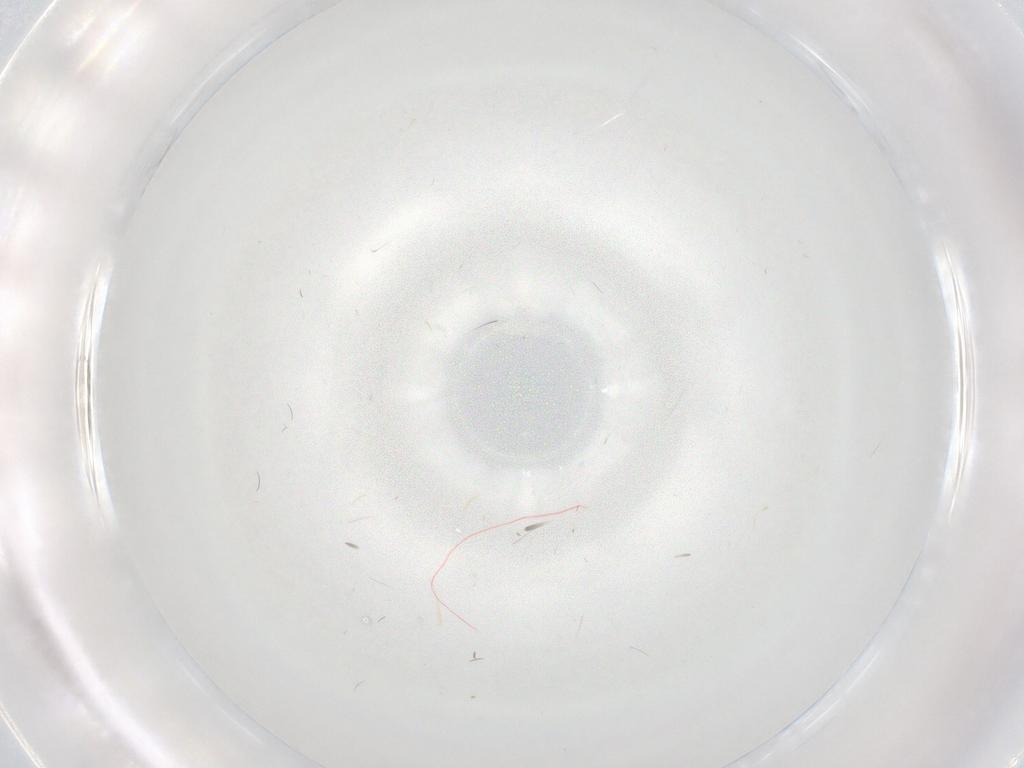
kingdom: Animalia
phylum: Arthropoda
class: Insecta
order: Diptera
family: Chironomidae
